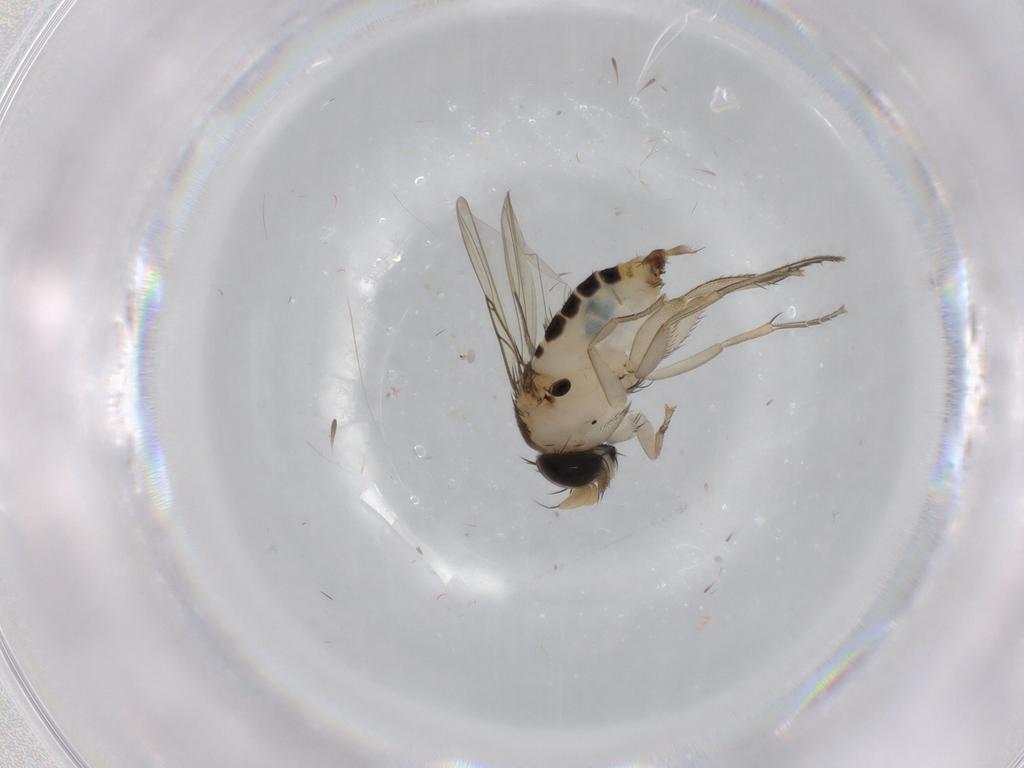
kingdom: Animalia
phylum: Arthropoda
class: Insecta
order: Diptera
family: Phoridae
